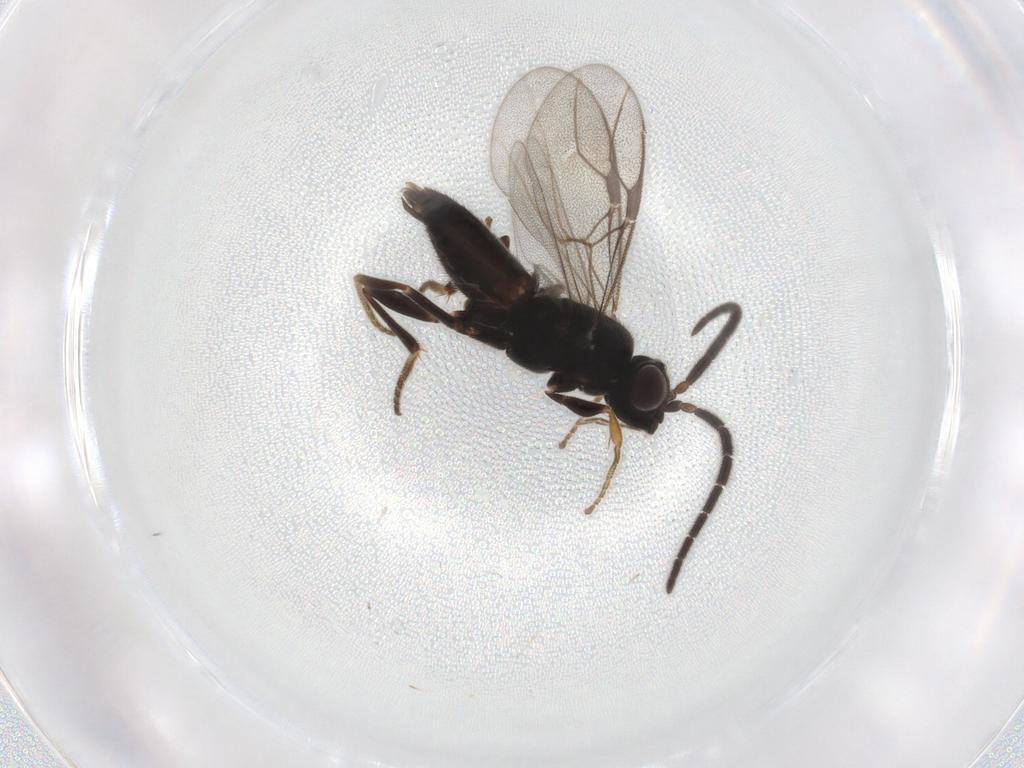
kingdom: Animalia
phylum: Arthropoda
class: Insecta
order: Hymenoptera
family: Dryinidae
